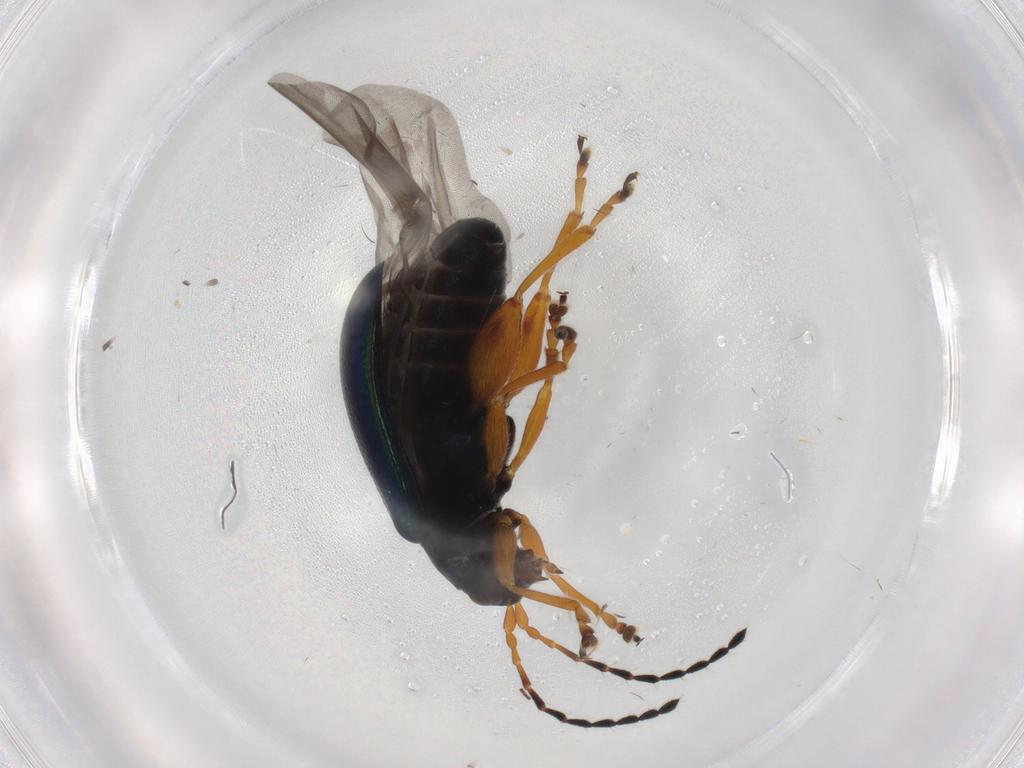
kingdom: Animalia
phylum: Arthropoda
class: Insecta
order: Coleoptera
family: Chrysomelidae
